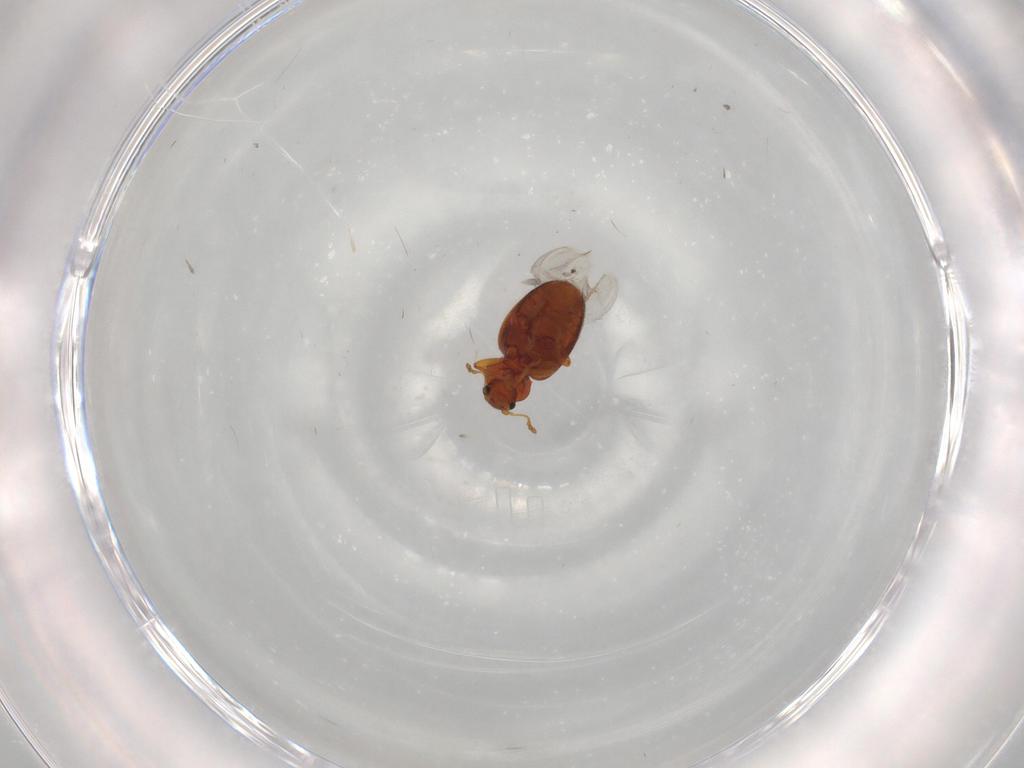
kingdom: Animalia
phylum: Arthropoda
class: Insecta
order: Coleoptera
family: Latridiidae
